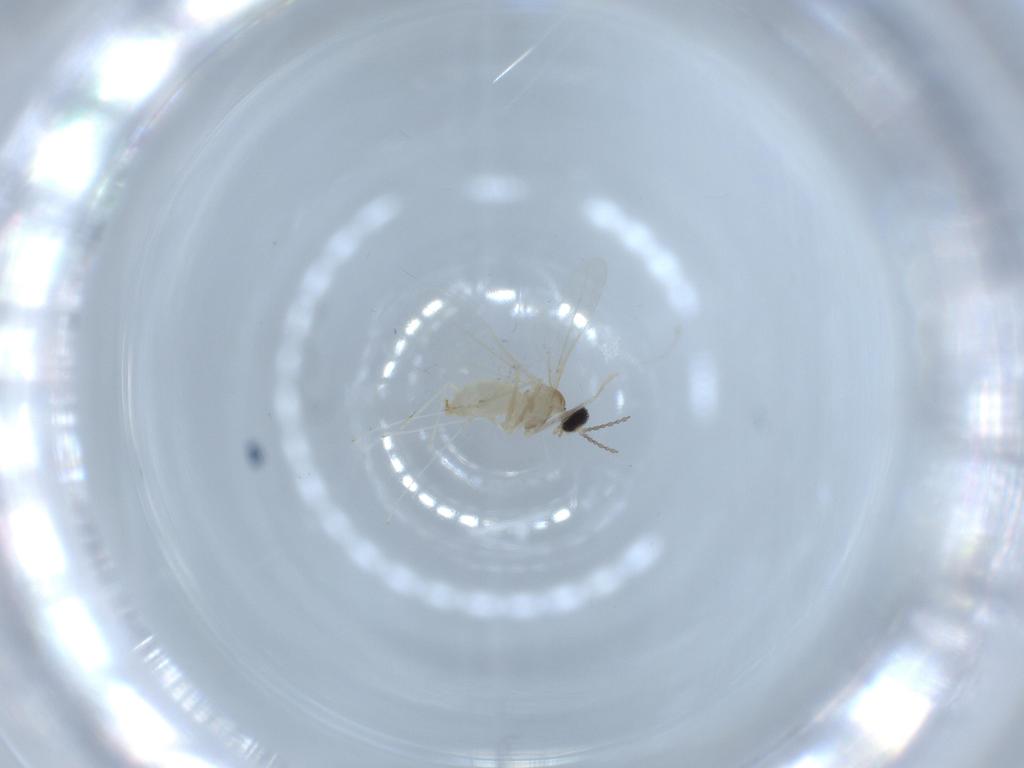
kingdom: Animalia
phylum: Arthropoda
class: Insecta
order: Diptera
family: Cecidomyiidae
